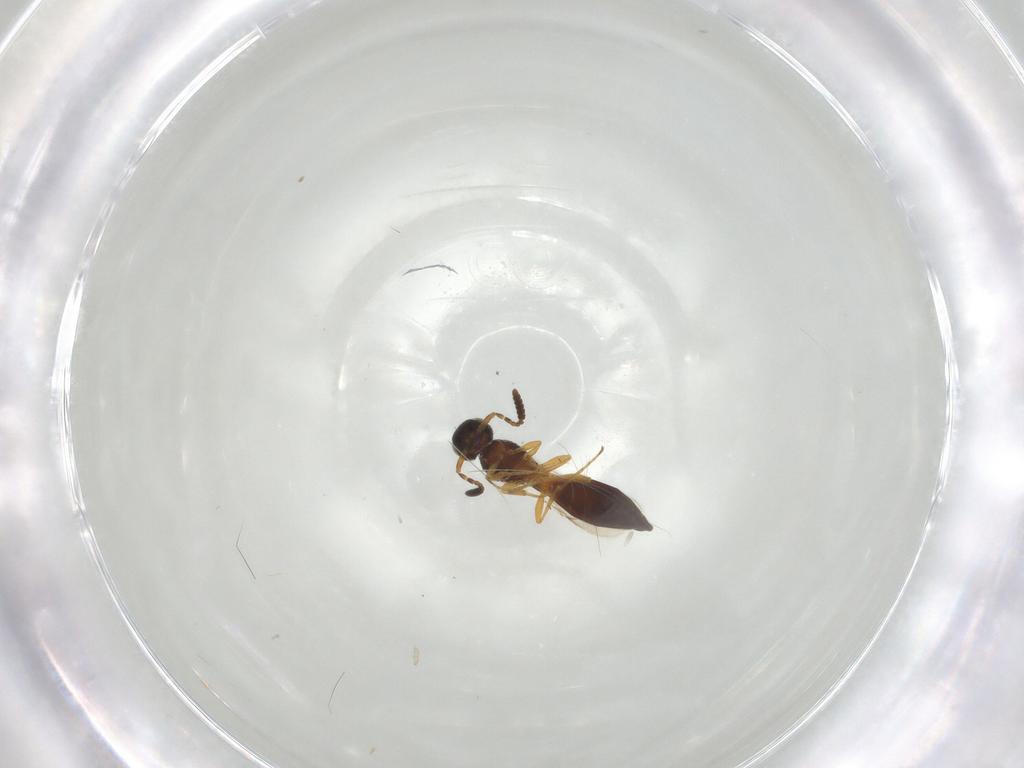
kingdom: Animalia
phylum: Arthropoda
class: Insecta
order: Hymenoptera
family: Formicidae
